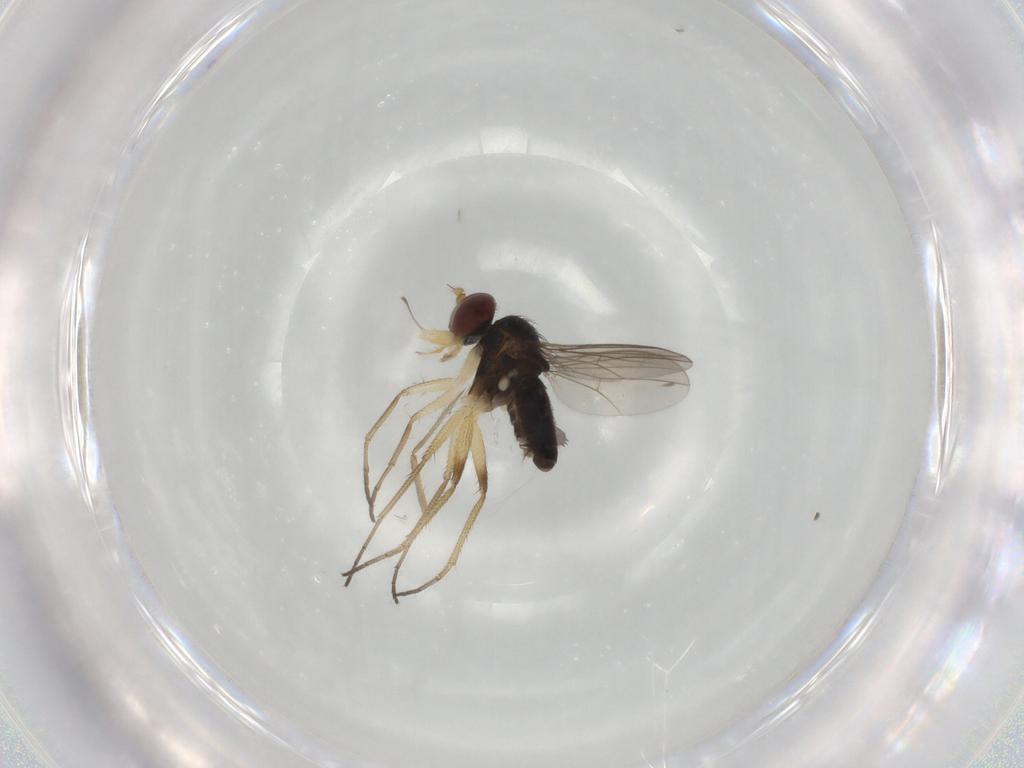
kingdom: Animalia
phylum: Arthropoda
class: Insecta
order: Diptera
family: Dolichopodidae
